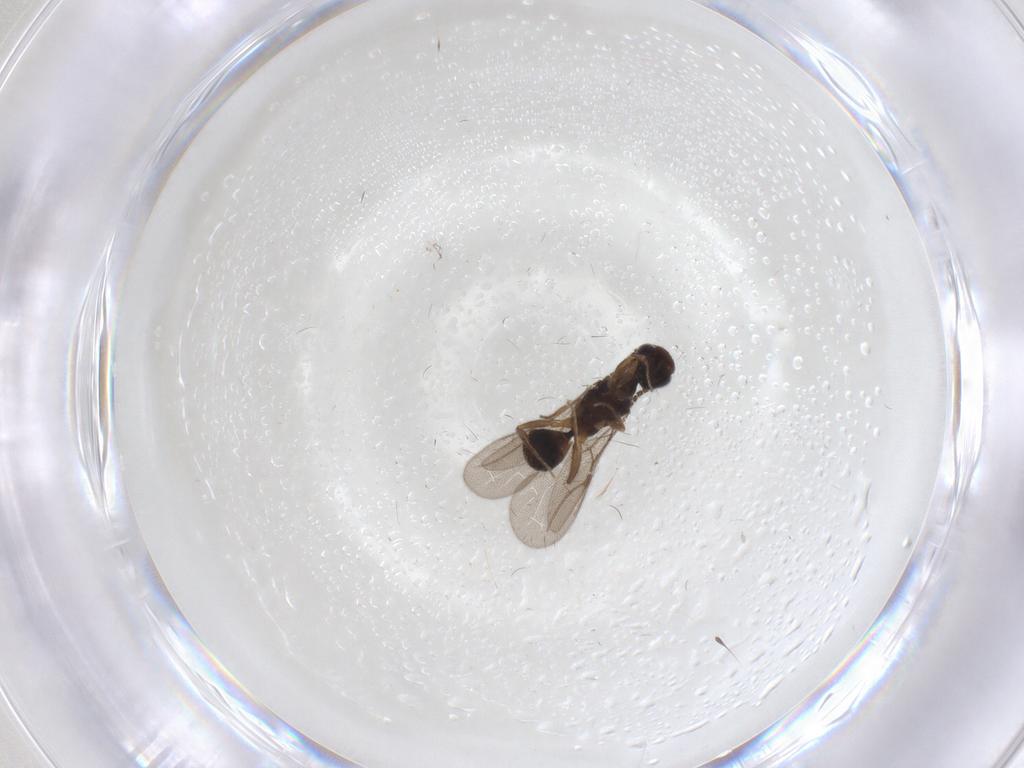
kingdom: Animalia
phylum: Arthropoda
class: Insecta
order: Hymenoptera
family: Bethylidae
